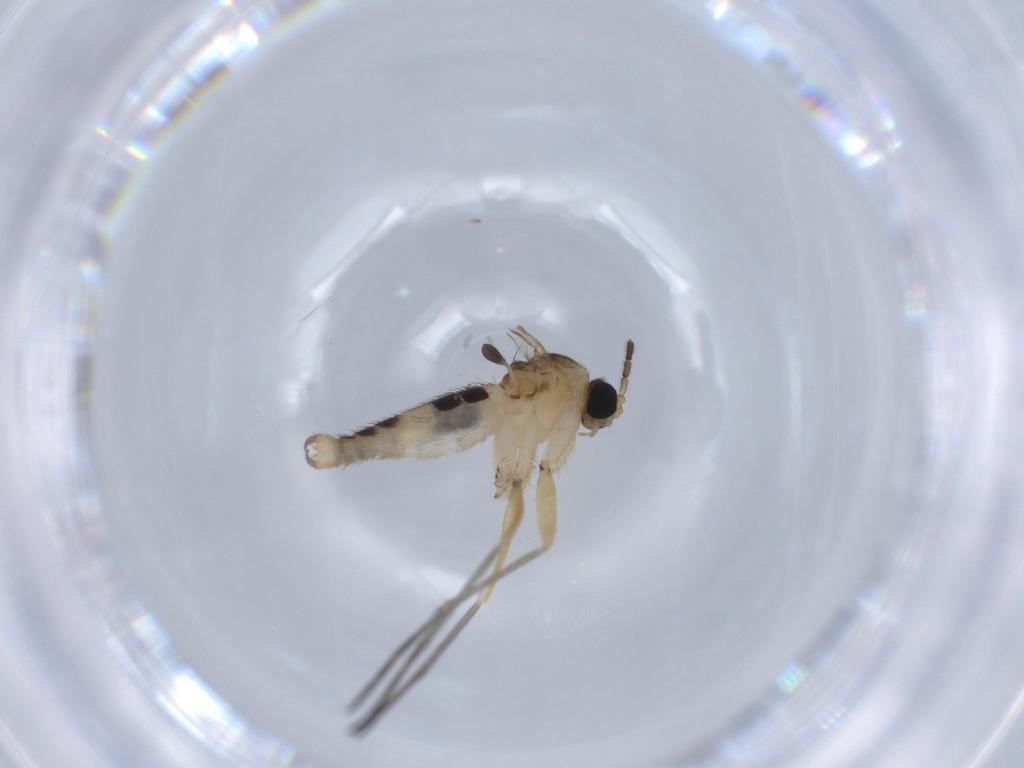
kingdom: Animalia
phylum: Arthropoda
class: Insecta
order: Diptera
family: Sciaridae
